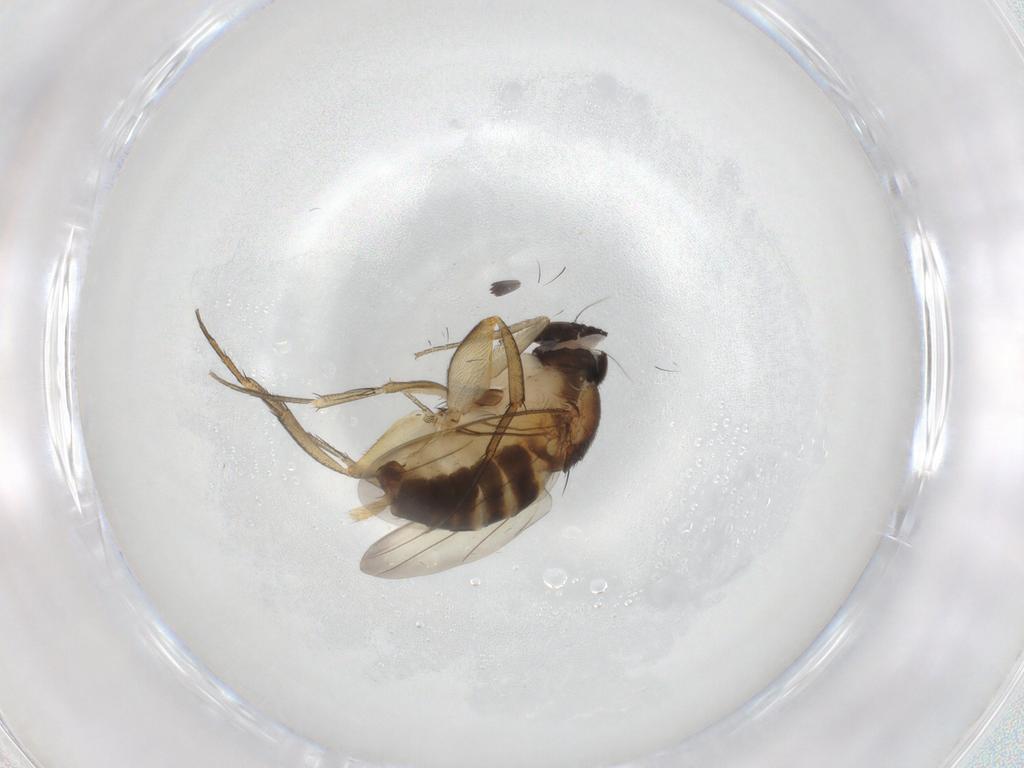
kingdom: Animalia
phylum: Arthropoda
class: Insecta
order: Diptera
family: Phoridae
